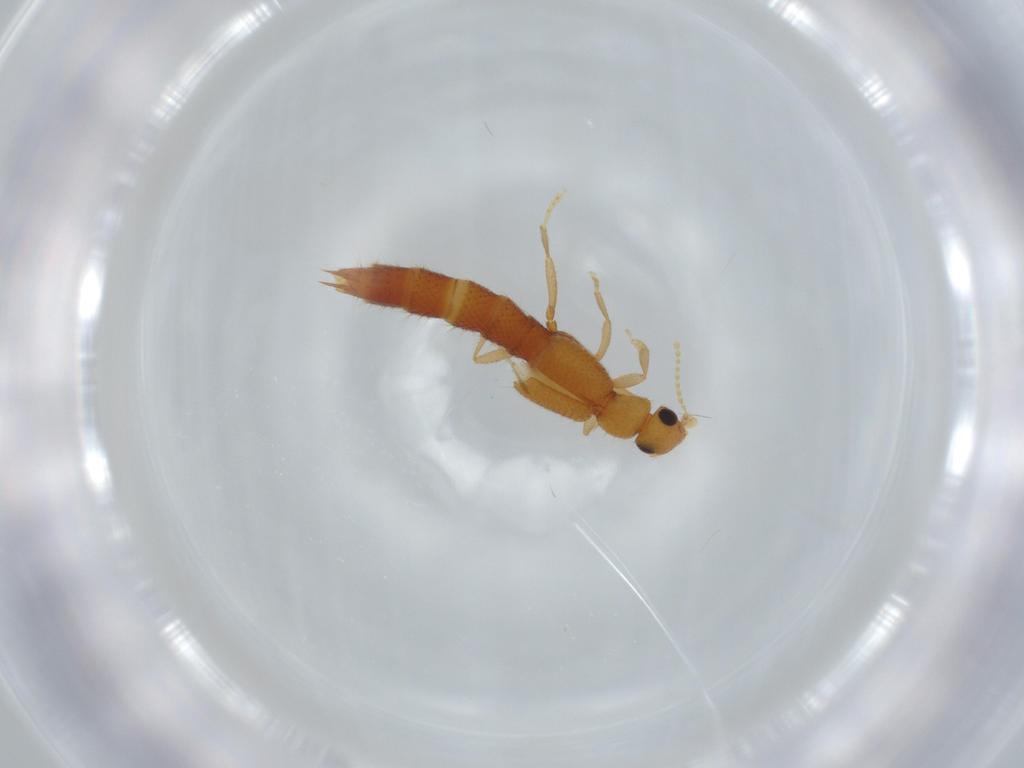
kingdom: Animalia
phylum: Arthropoda
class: Insecta
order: Coleoptera
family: Staphylinidae
